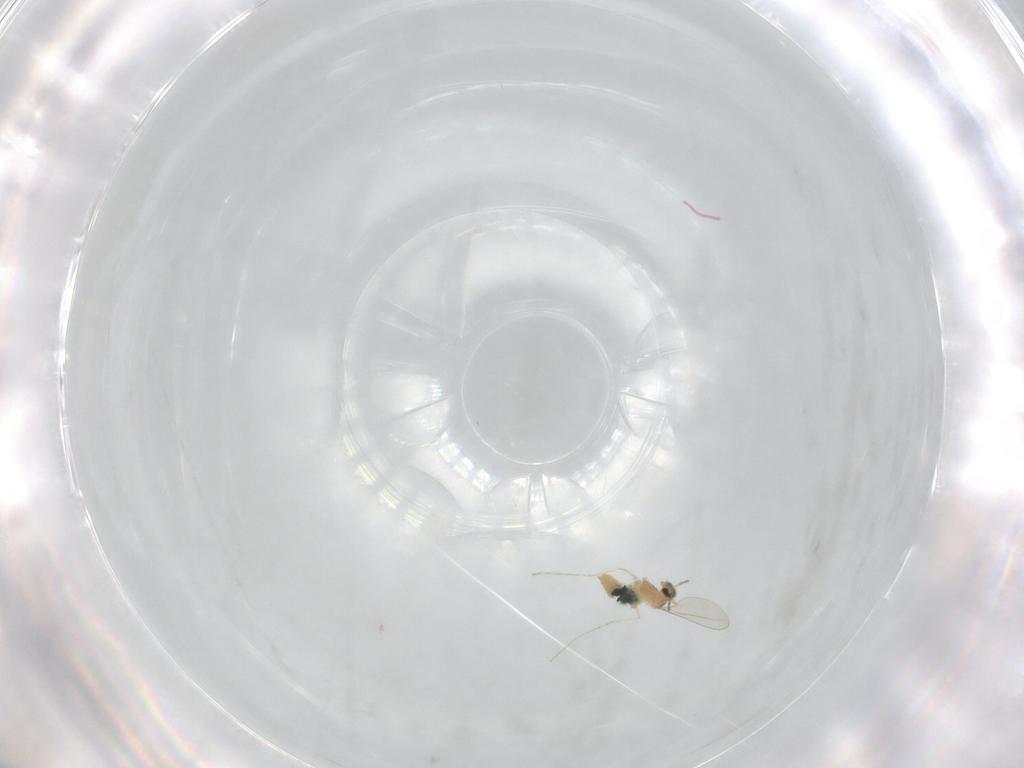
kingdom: Animalia
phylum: Arthropoda
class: Insecta
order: Diptera
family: Cecidomyiidae
